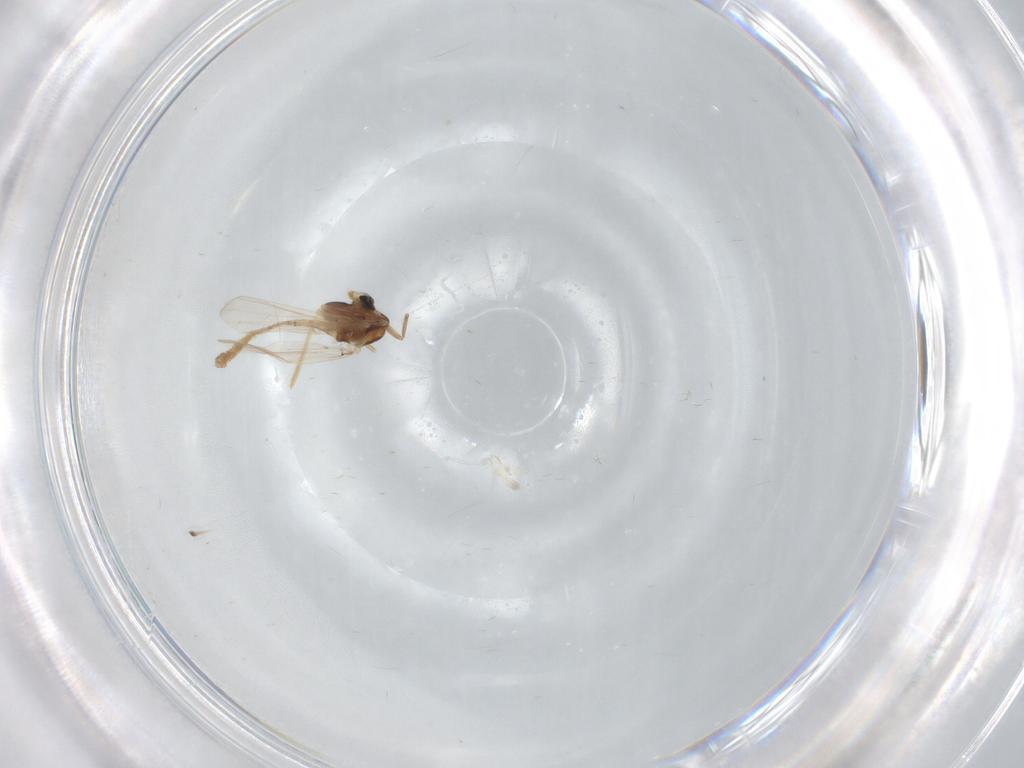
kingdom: Animalia
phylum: Arthropoda
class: Insecta
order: Diptera
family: Chironomidae
